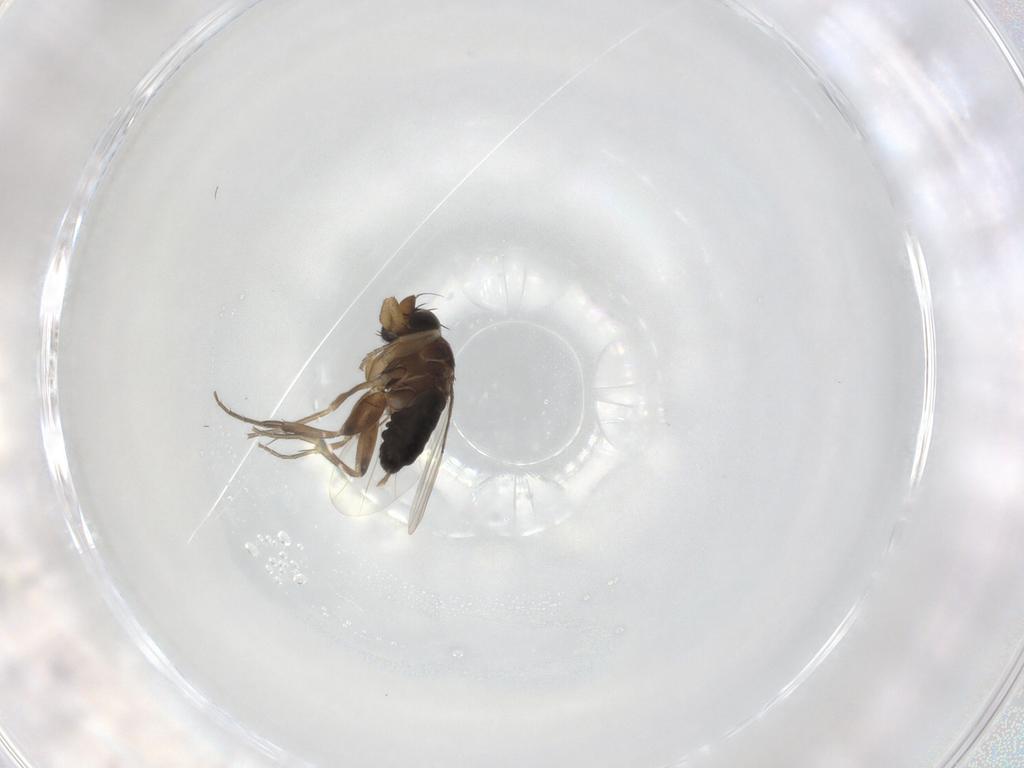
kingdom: Animalia
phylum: Arthropoda
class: Insecta
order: Diptera
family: Phoridae
